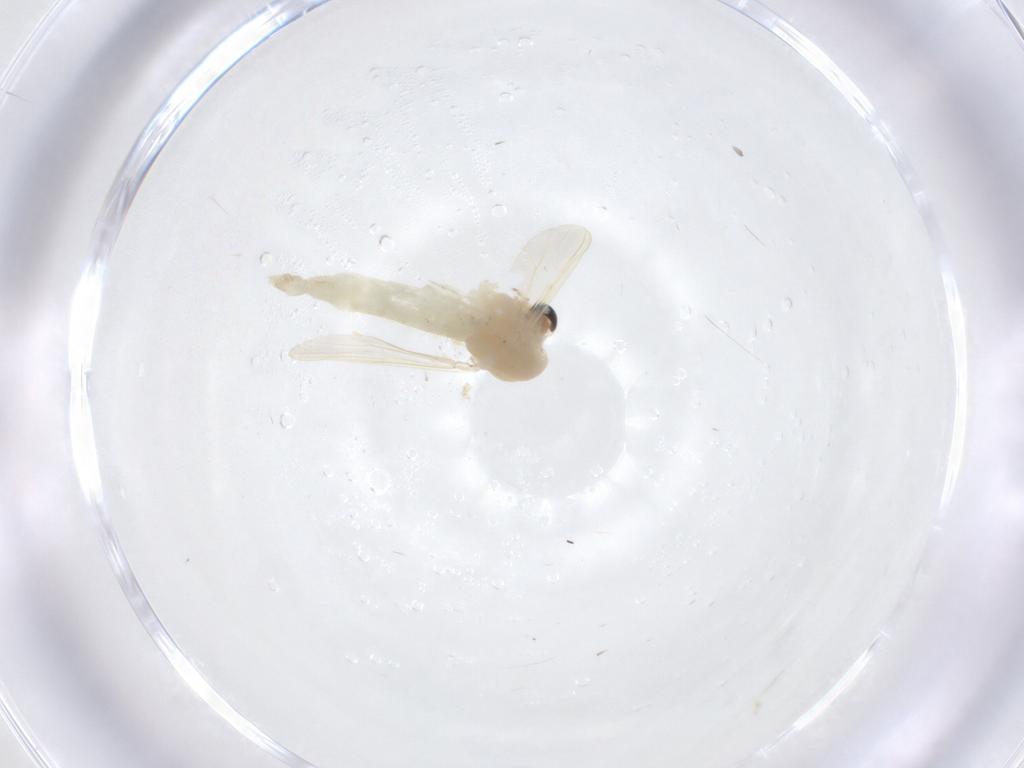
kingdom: Animalia
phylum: Arthropoda
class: Insecta
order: Diptera
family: Chironomidae
